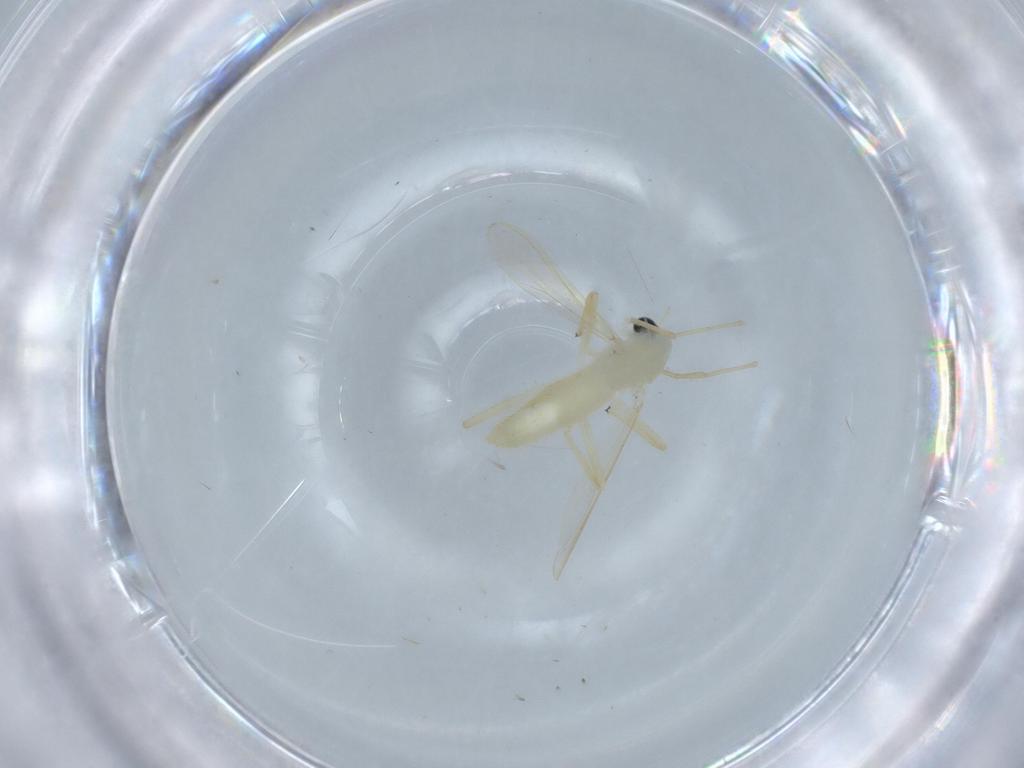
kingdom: Animalia
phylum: Arthropoda
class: Insecta
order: Diptera
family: Chironomidae
